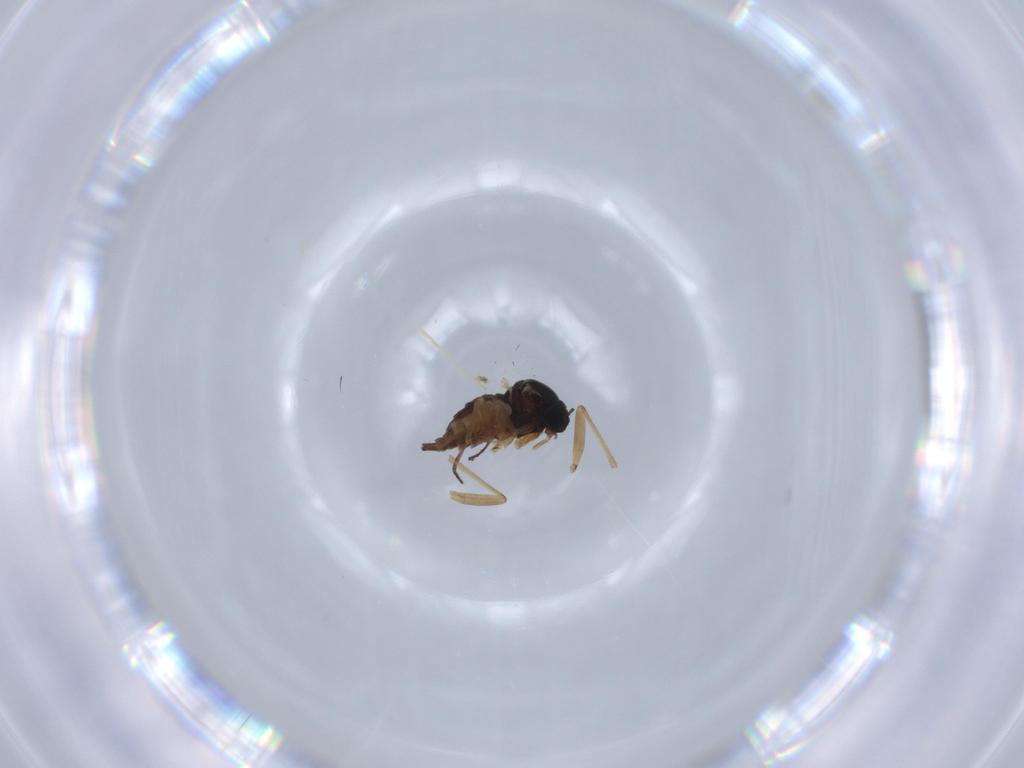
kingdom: Animalia
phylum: Arthropoda
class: Insecta
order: Diptera
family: Sciaridae
